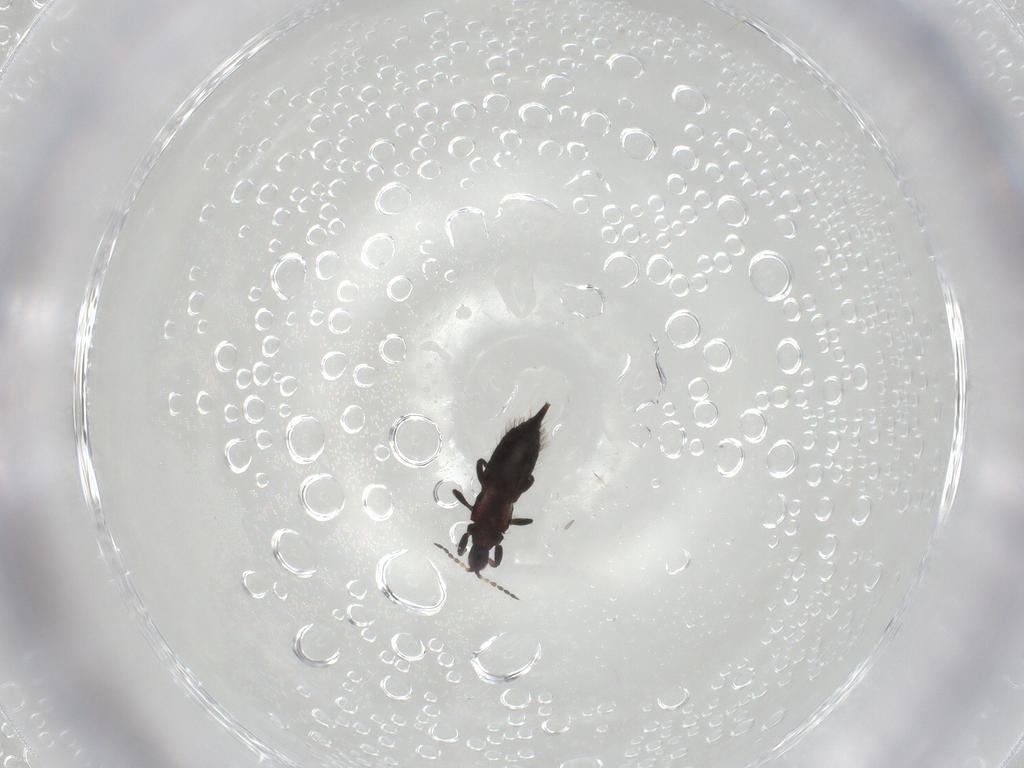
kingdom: Animalia
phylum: Arthropoda
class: Insecta
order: Thysanoptera
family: Phlaeothripidae
